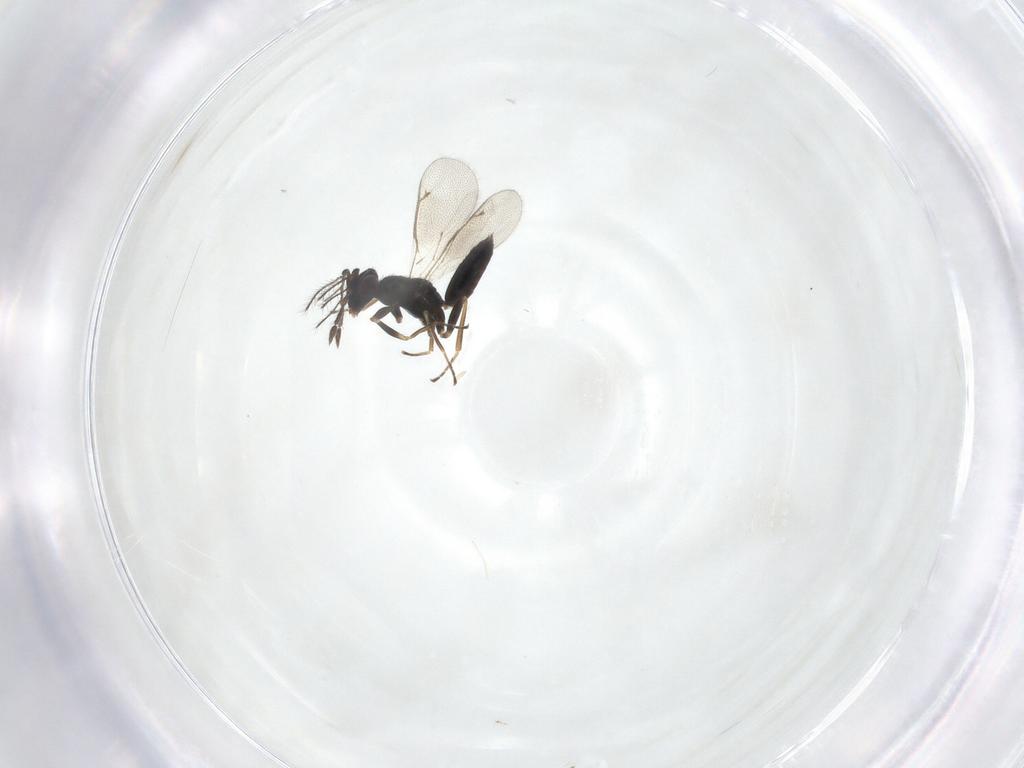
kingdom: Animalia
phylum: Arthropoda
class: Insecta
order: Hymenoptera
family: Eulophidae
